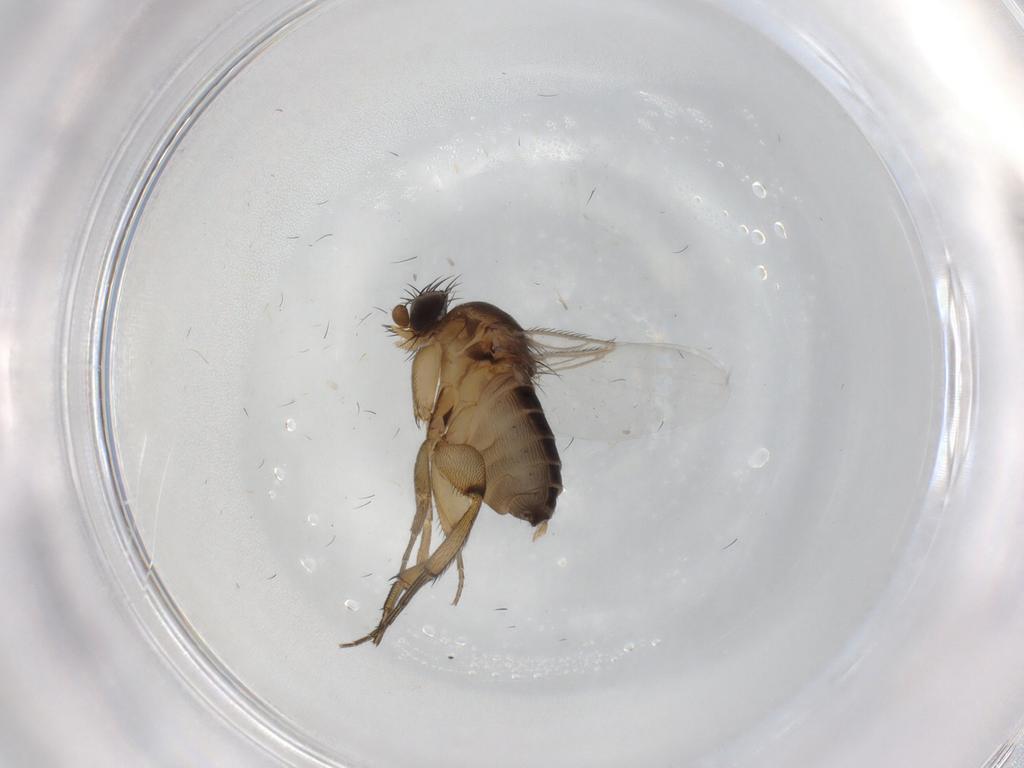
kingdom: Animalia
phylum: Arthropoda
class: Insecta
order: Diptera
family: Phoridae
